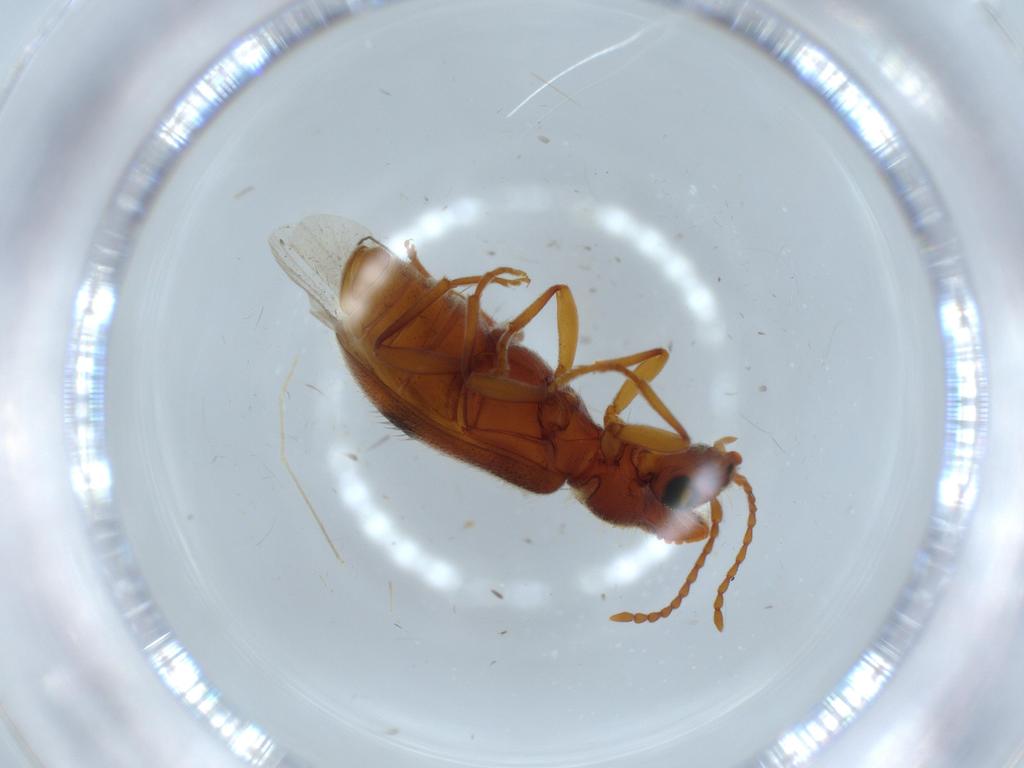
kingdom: Animalia
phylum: Arthropoda
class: Insecta
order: Coleoptera
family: Anthicidae
